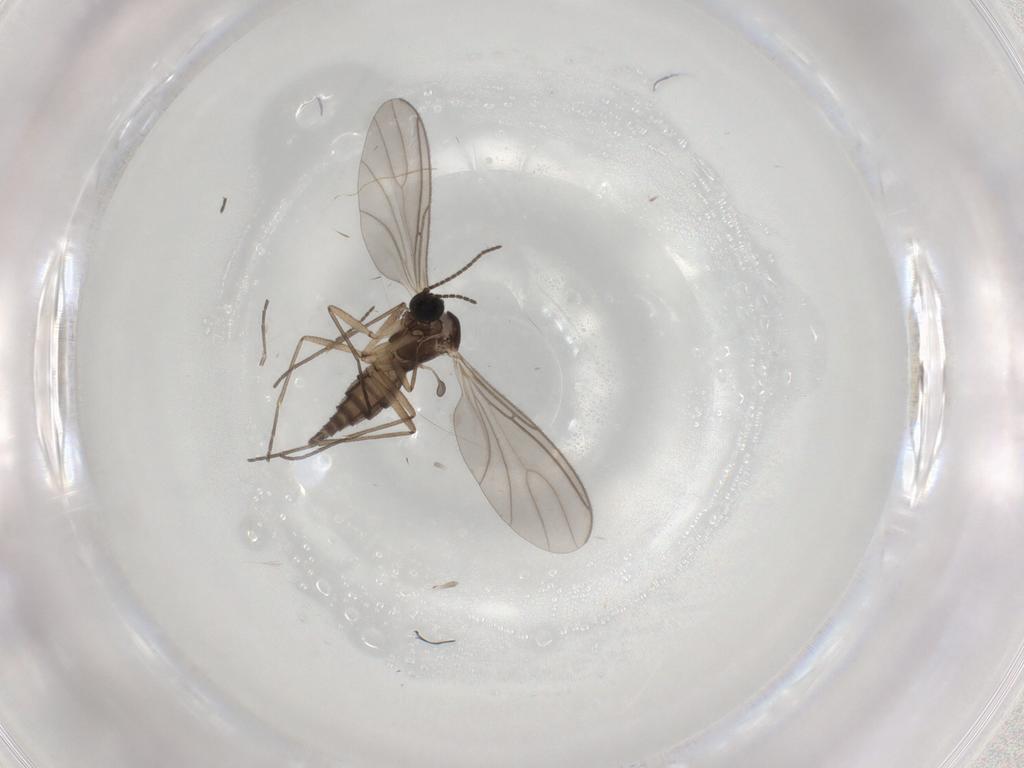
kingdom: Animalia
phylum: Arthropoda
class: Insecta
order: Diptera
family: Sciaridae
